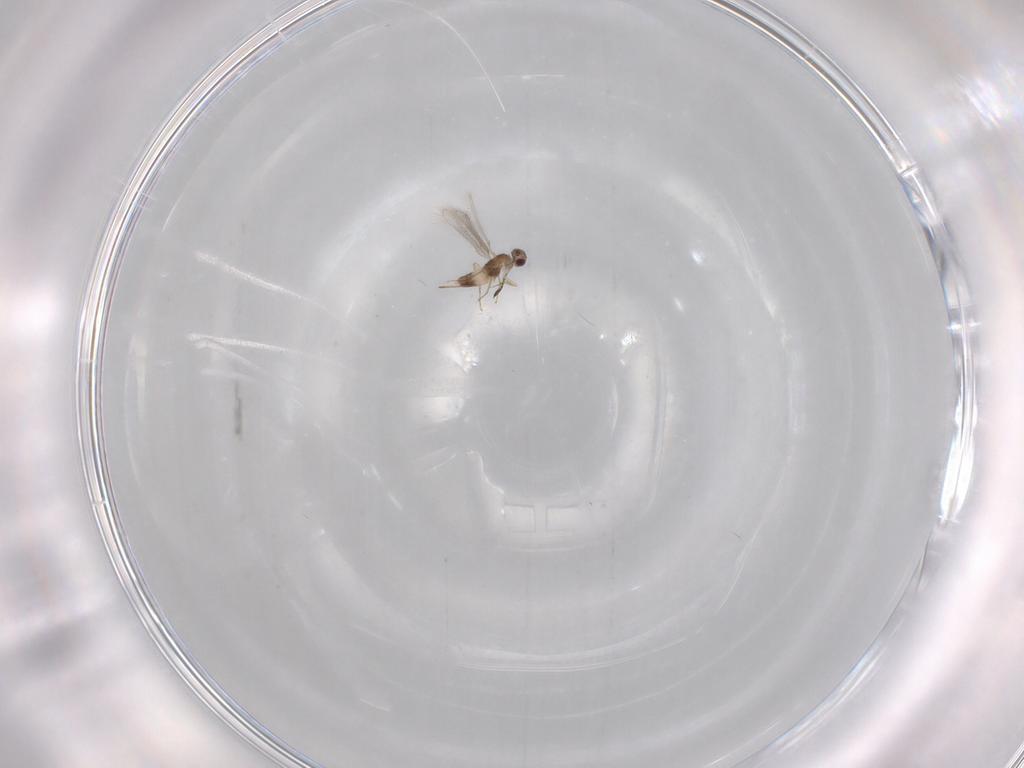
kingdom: Animalia
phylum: Arthropoda
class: Insecta
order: Hymenoptera
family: Mymaridae
